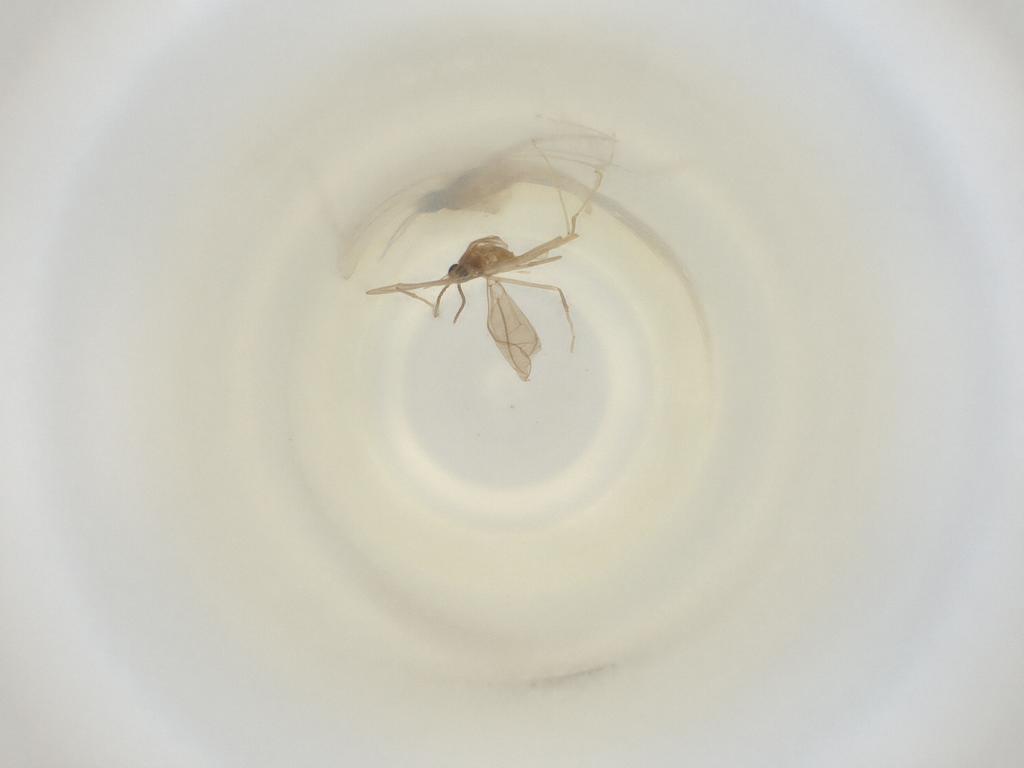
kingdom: Animalia
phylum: Arthropoda
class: Insecta
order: Diptera
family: Cecidomyiidae
